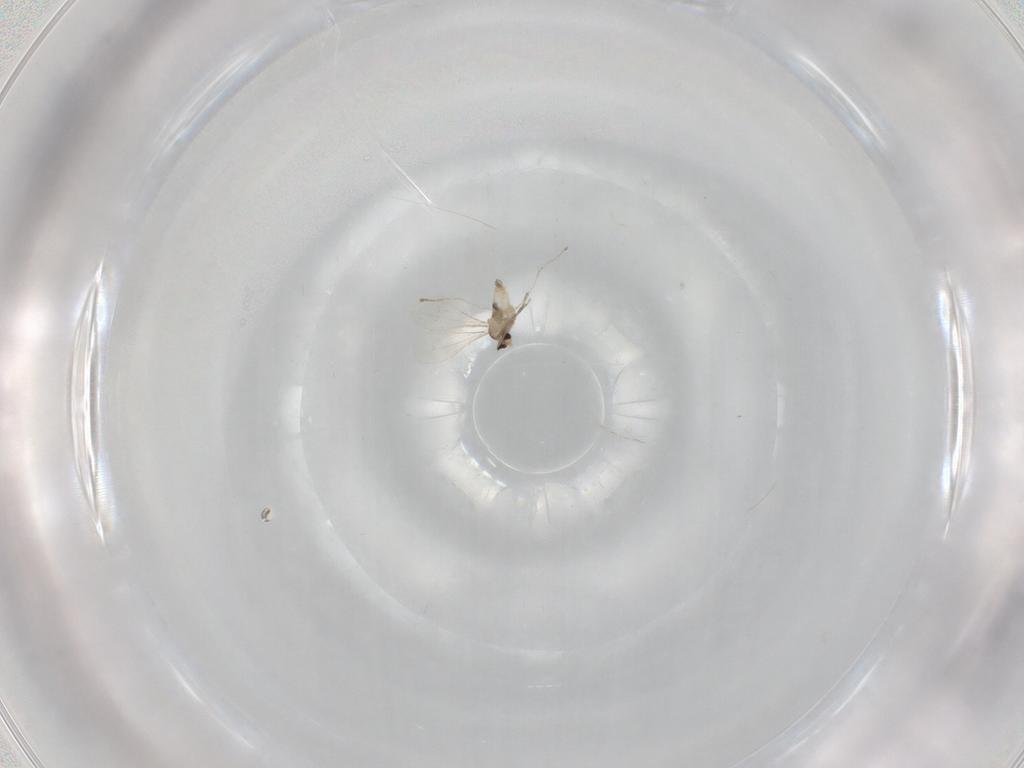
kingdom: Animalia
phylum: Arthropoda
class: Insecta
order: Diptera
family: Cecidomyiidae
